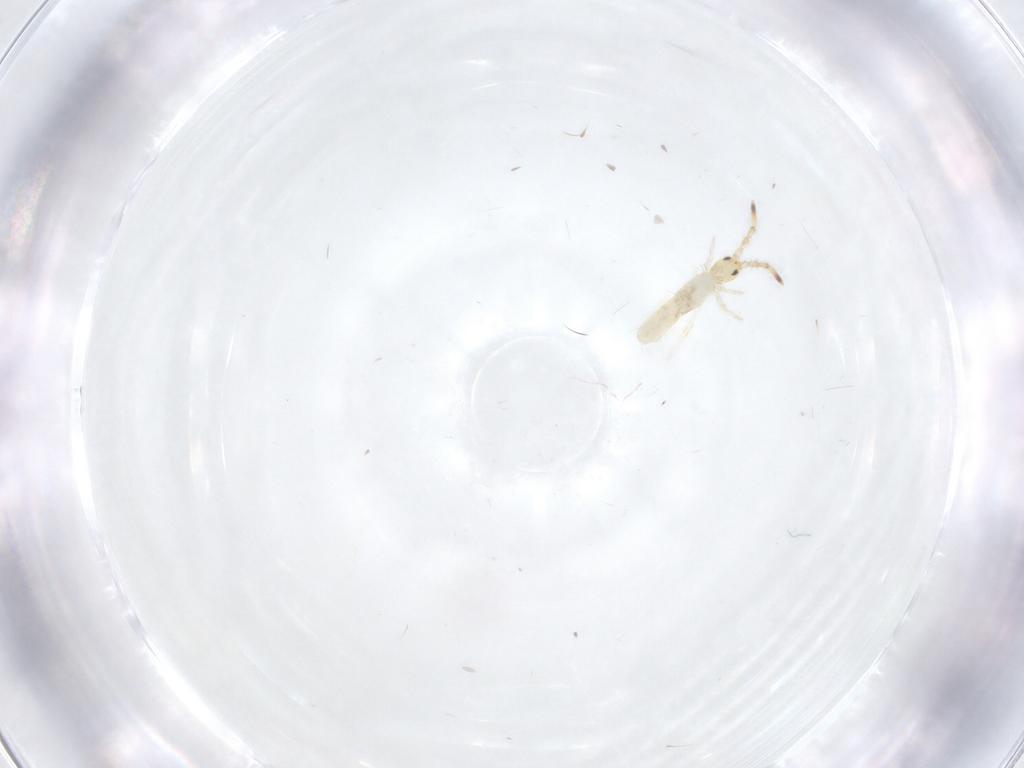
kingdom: Animalia
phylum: Arthropoda
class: Collembola
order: Entomobryomorpha
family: Entomobryidae
